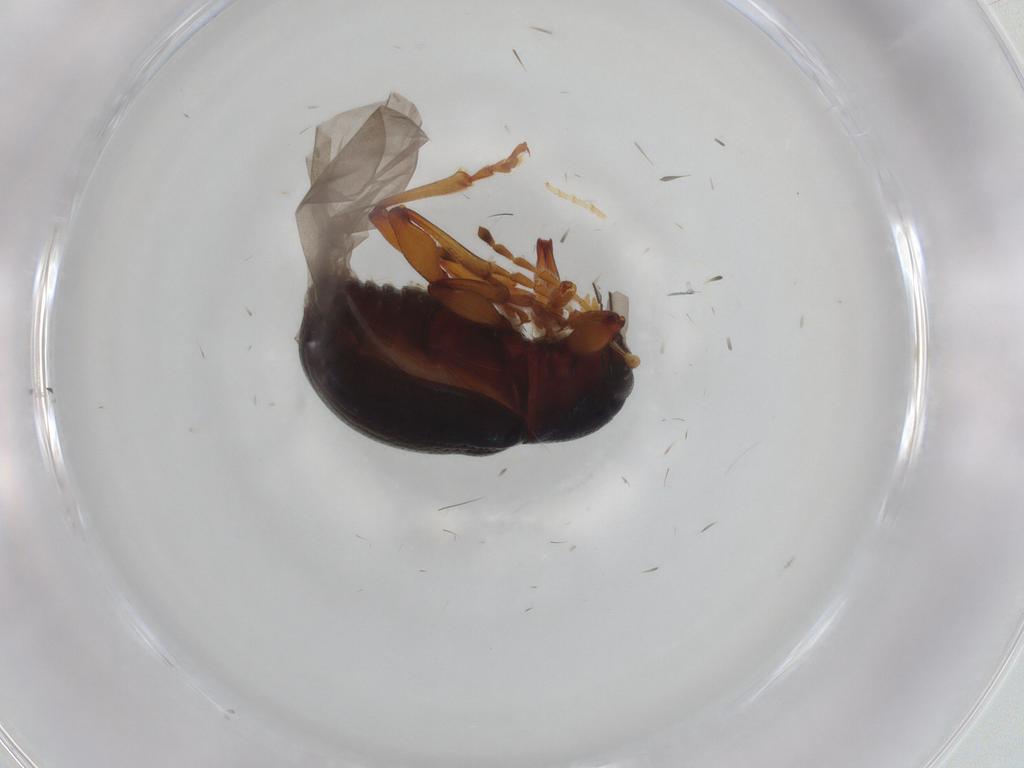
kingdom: Animalia
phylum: Arthropoda
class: Insecta
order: Coleoptera
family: Chrysomelidae
